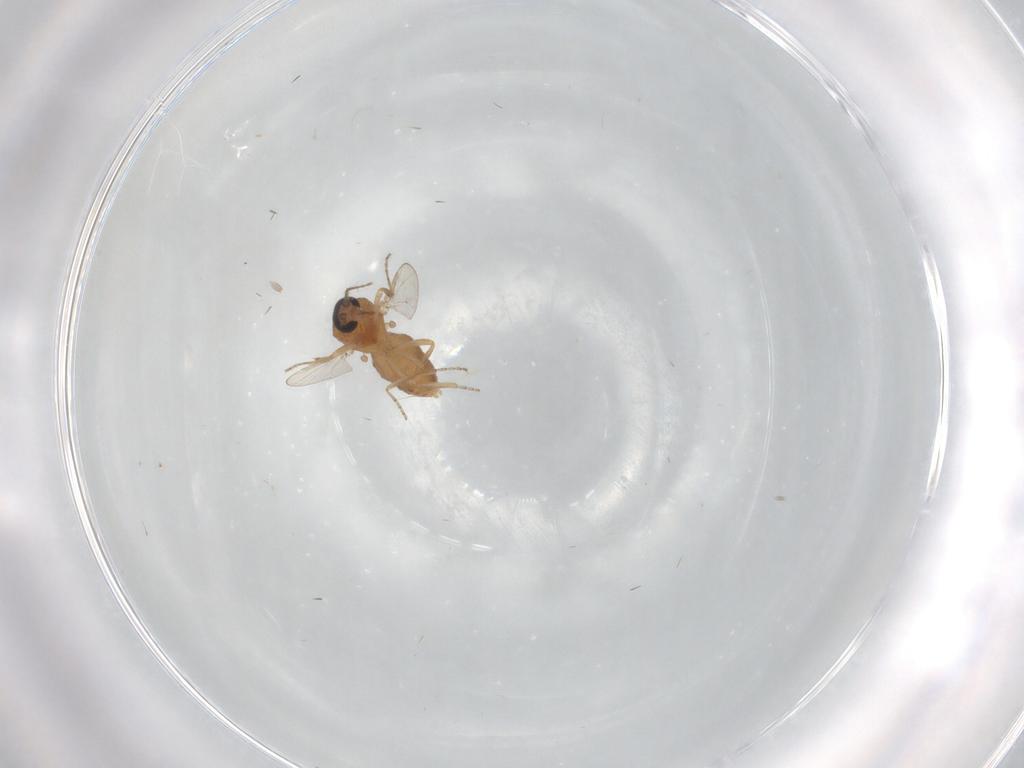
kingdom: Animalia
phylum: Arthropoda
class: Insecta
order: Diptera
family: Ceratopogonidae
